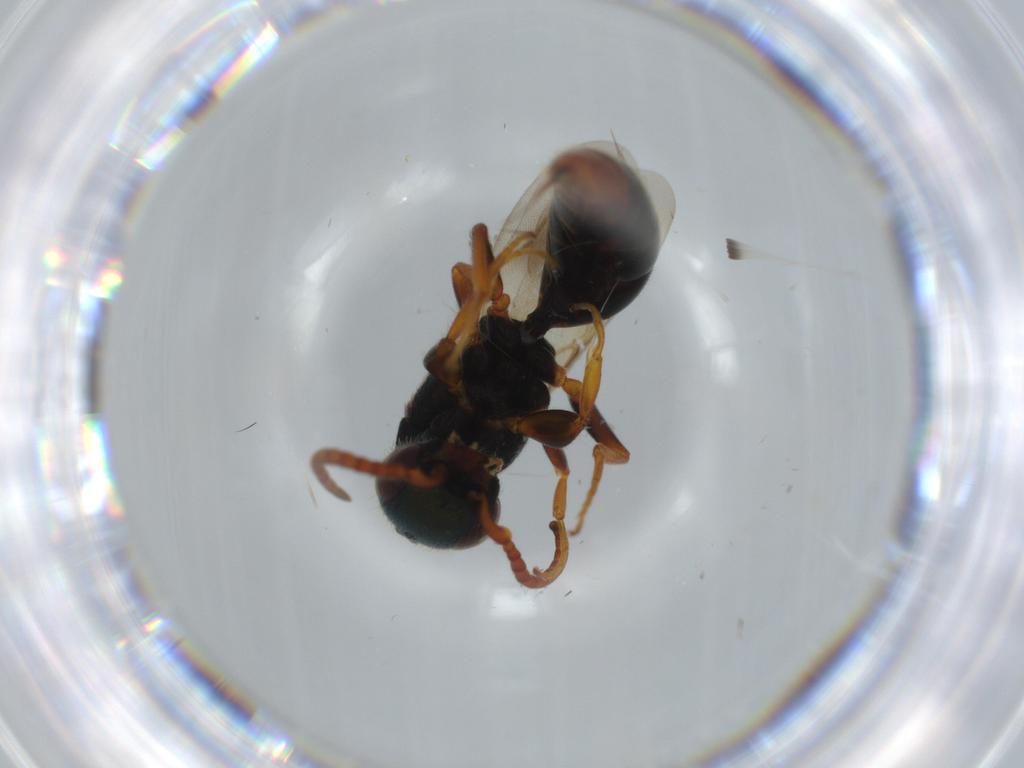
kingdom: Animalia
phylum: Arthropoda
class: Insecta
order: Hymenoptera
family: Bethylidae
